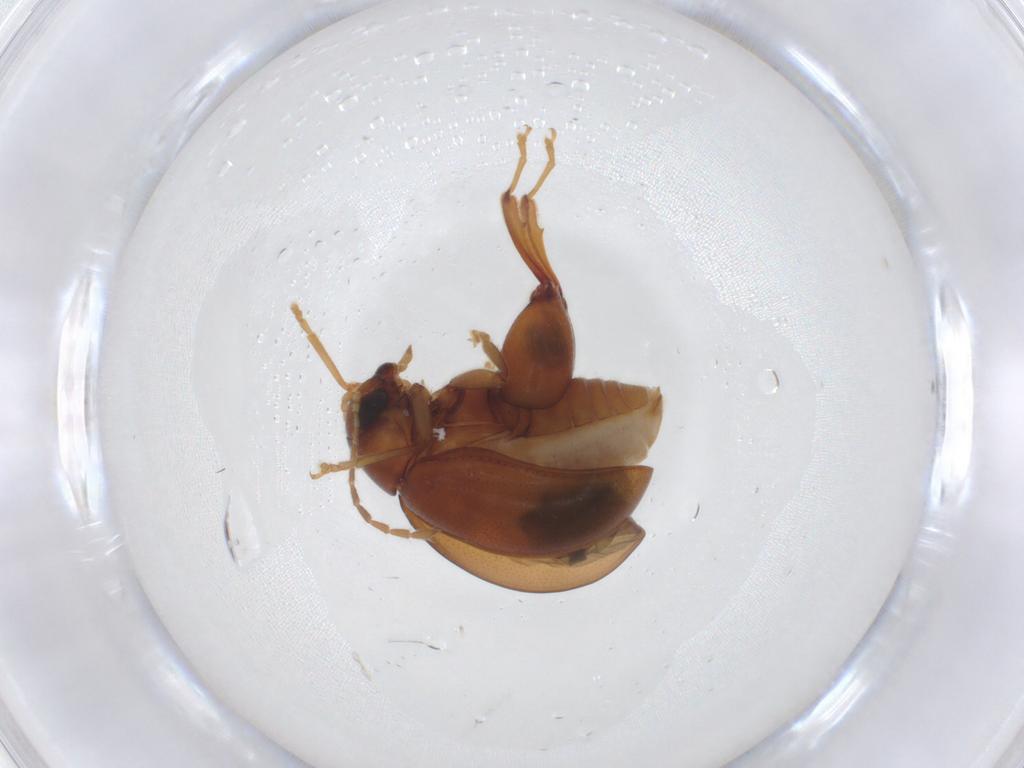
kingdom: Animalia
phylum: Arthropoda
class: Insecta
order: Coleoptera
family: Chrysomelidae
